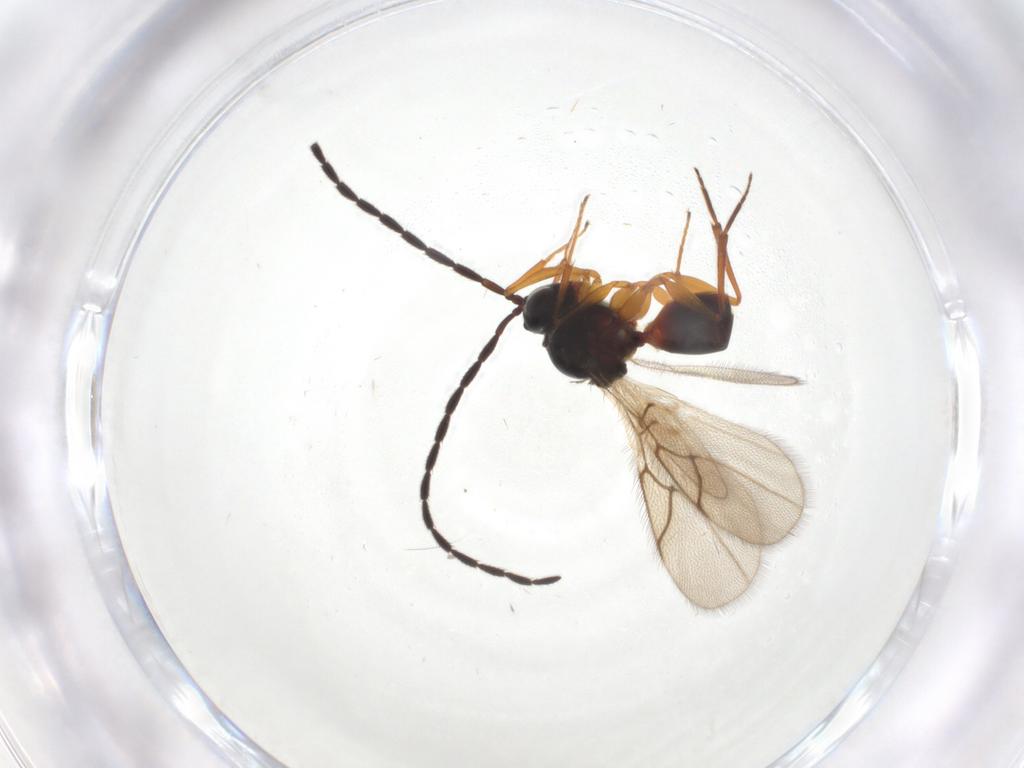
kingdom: Animalia
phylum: Arthropoda
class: Insecta
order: Hymenoptera
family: Figitidae
